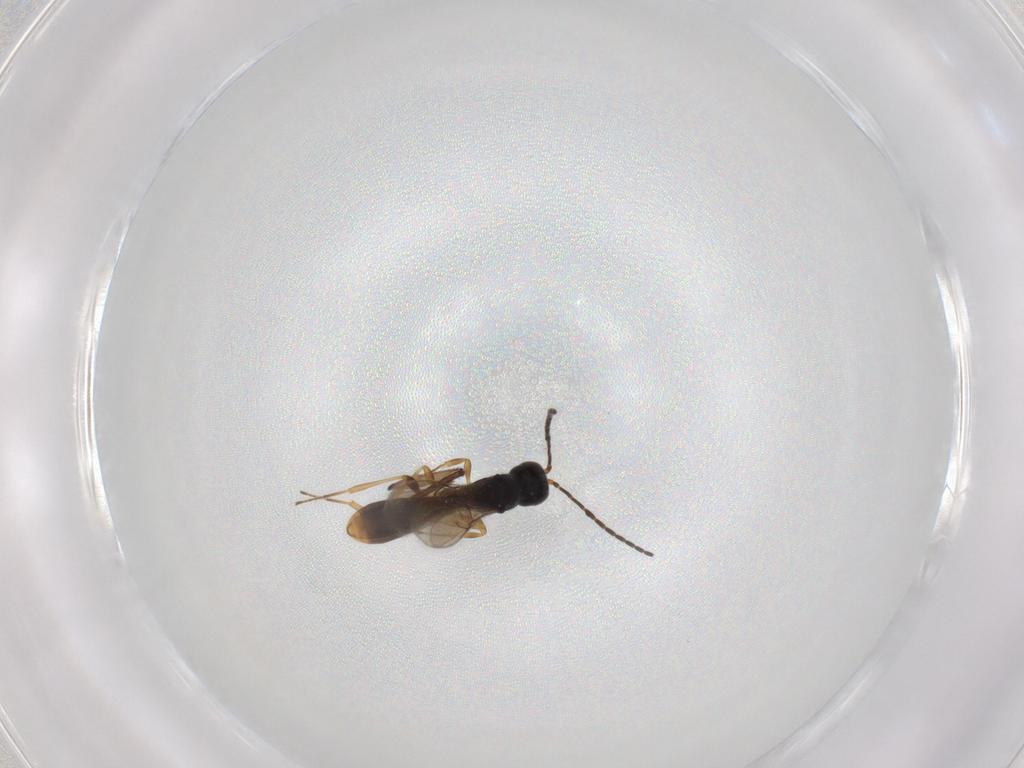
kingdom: Animalia
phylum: Arthropoda
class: Insecta
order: Hymenoptera
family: Scelionidae
